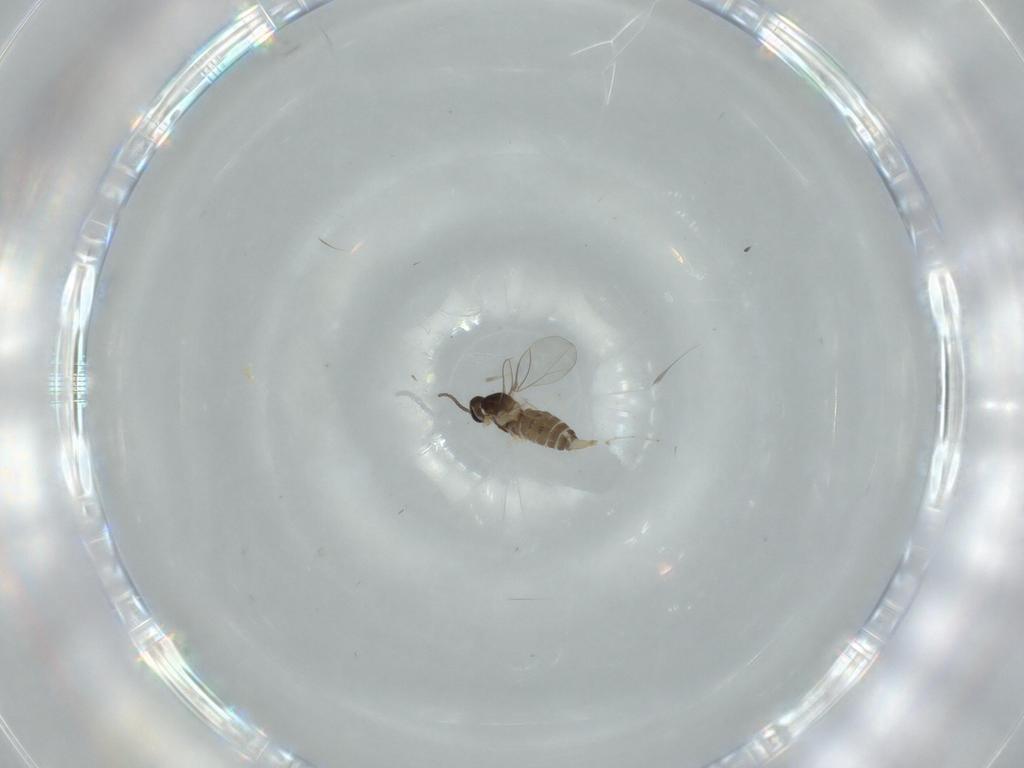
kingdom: Animalia
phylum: Arthropoda
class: Insecta
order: Diptera
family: Cecidomyiidae
